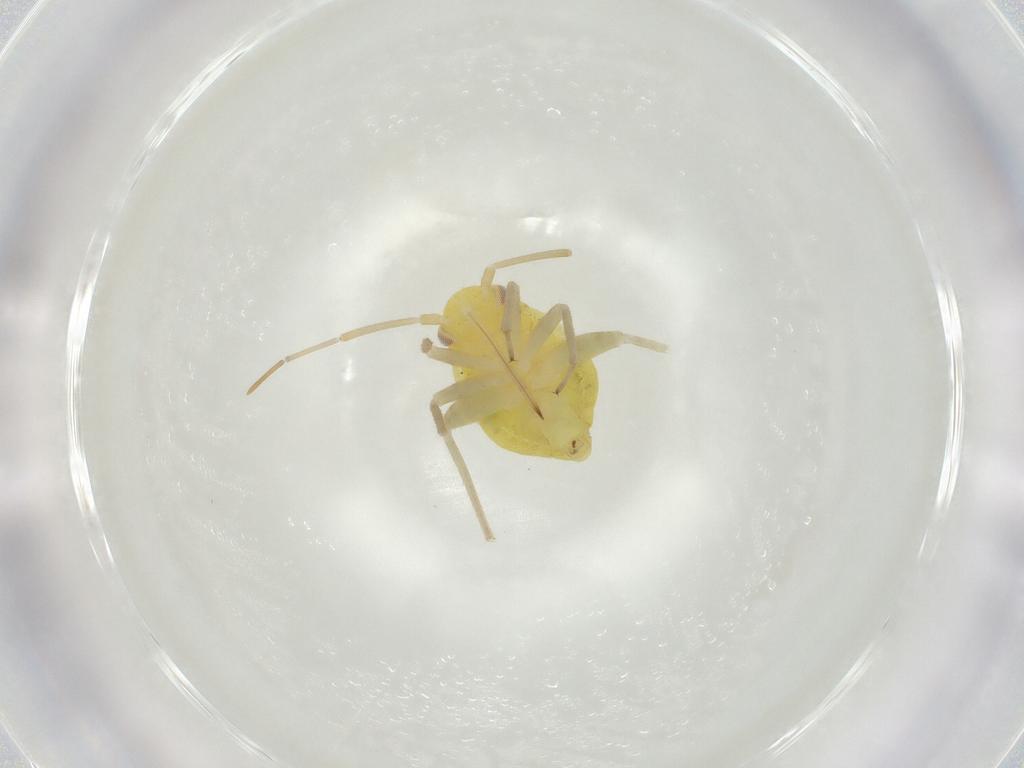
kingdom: Animalia
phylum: Arthropoda
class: Insecta
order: Hemiptera
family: Miridae
